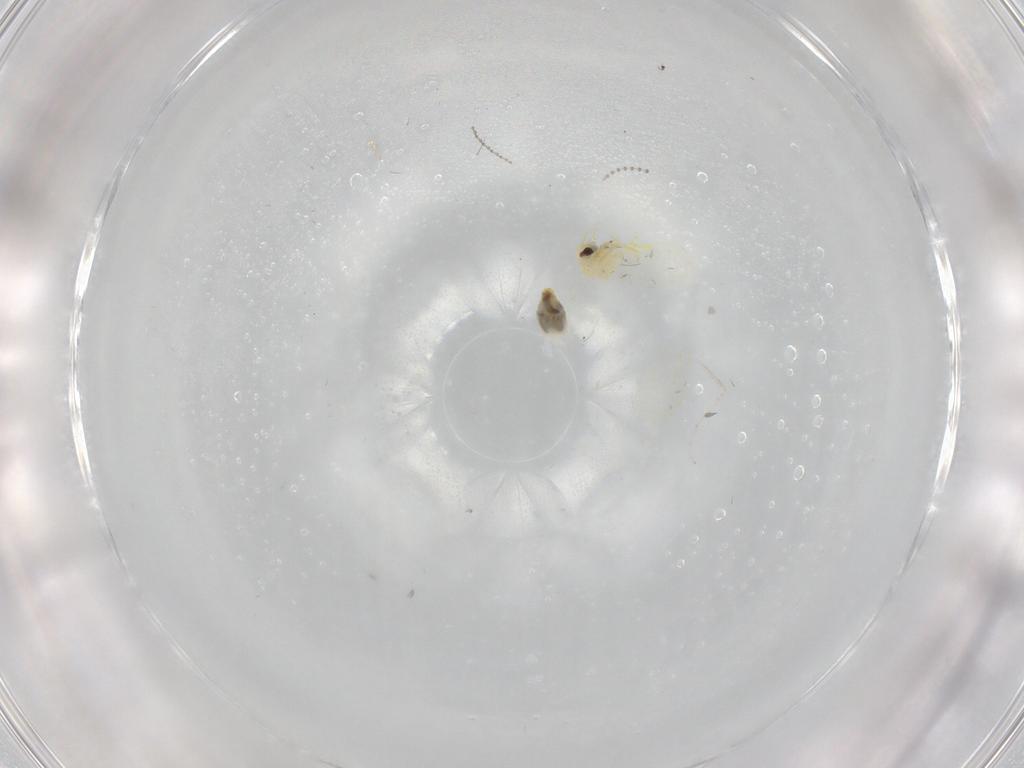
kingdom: Animalia
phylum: Arthropoda
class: Insecta
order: Hemiptera
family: Aleyrodidae
